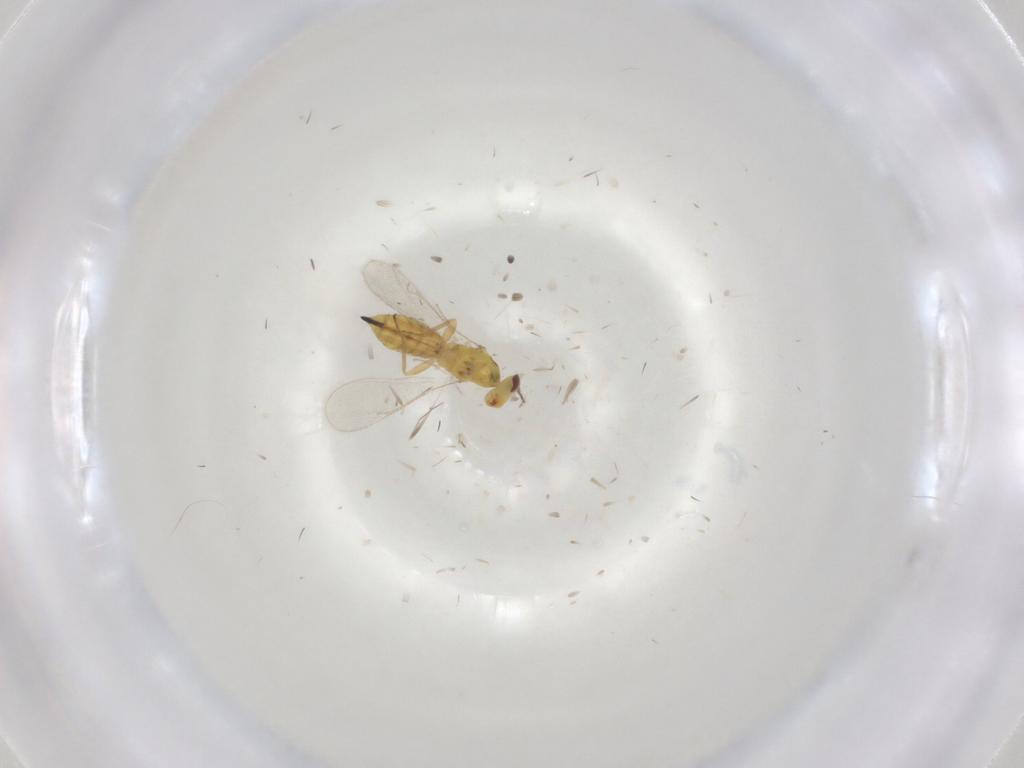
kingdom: Animalia
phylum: Arthropoda
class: Insecta
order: Hymenoptera
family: Eulophidae
